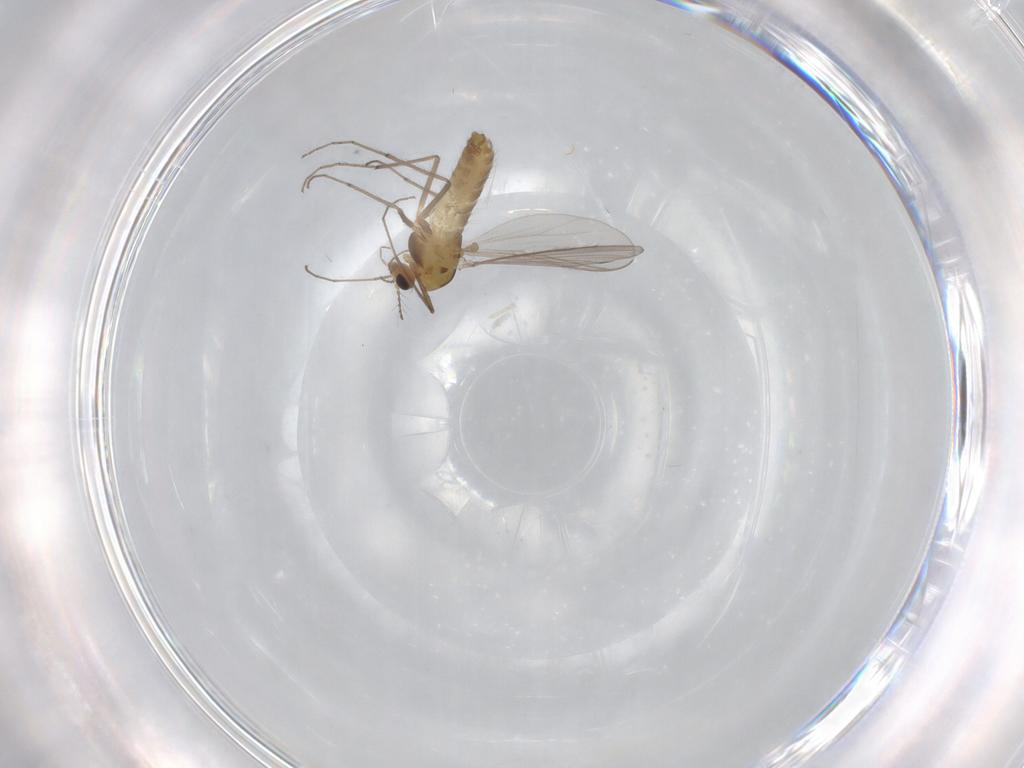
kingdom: Animalia
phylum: Arthropoda
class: Insecta
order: Diptera
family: Chironomidae
